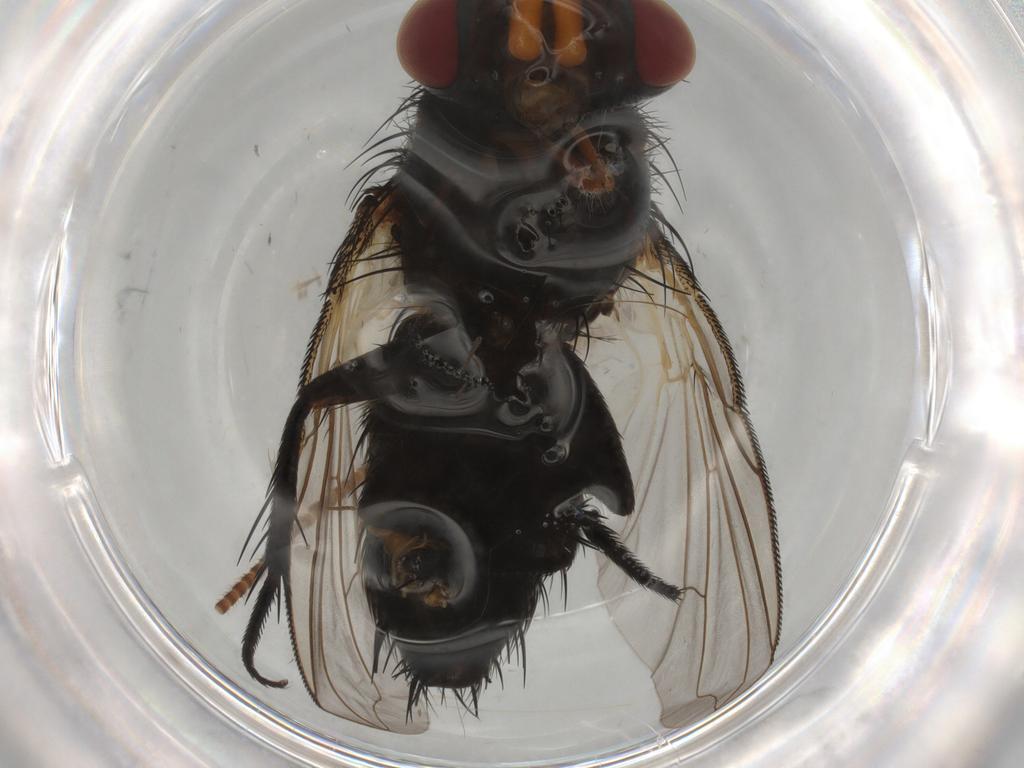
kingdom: Animalia
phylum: Arthropoda
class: Insecta
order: Diptera
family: Cecidomyiidae
